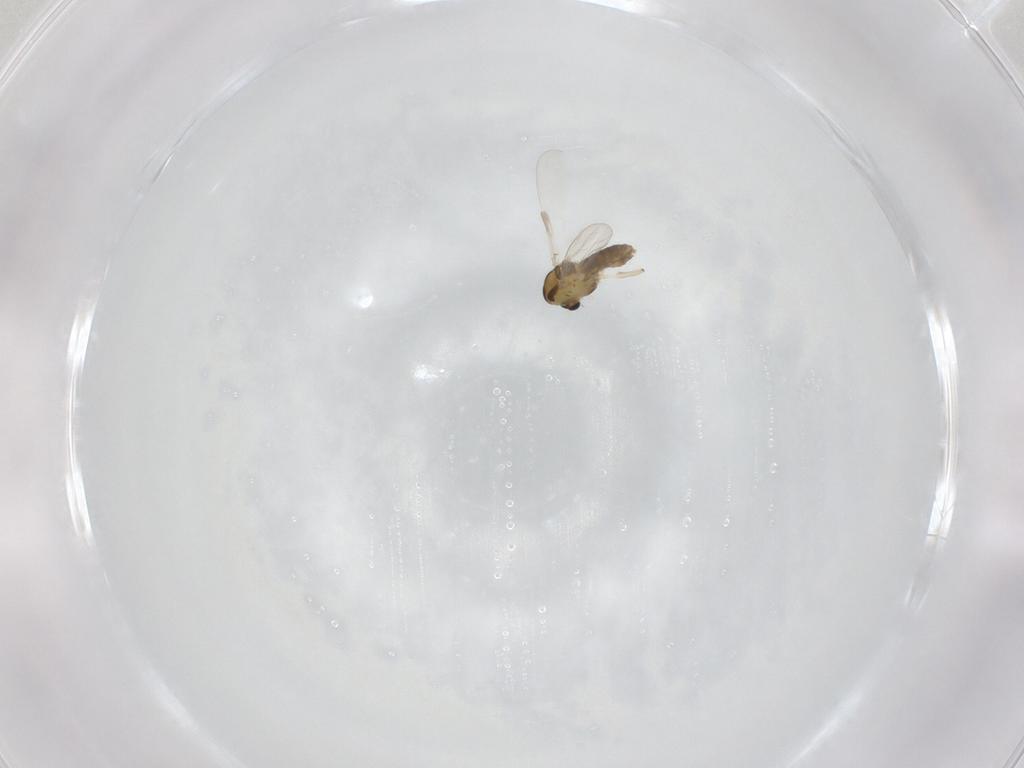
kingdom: Animalia
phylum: Arthropoda
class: Insecta
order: Diptera
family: Chironomidae
